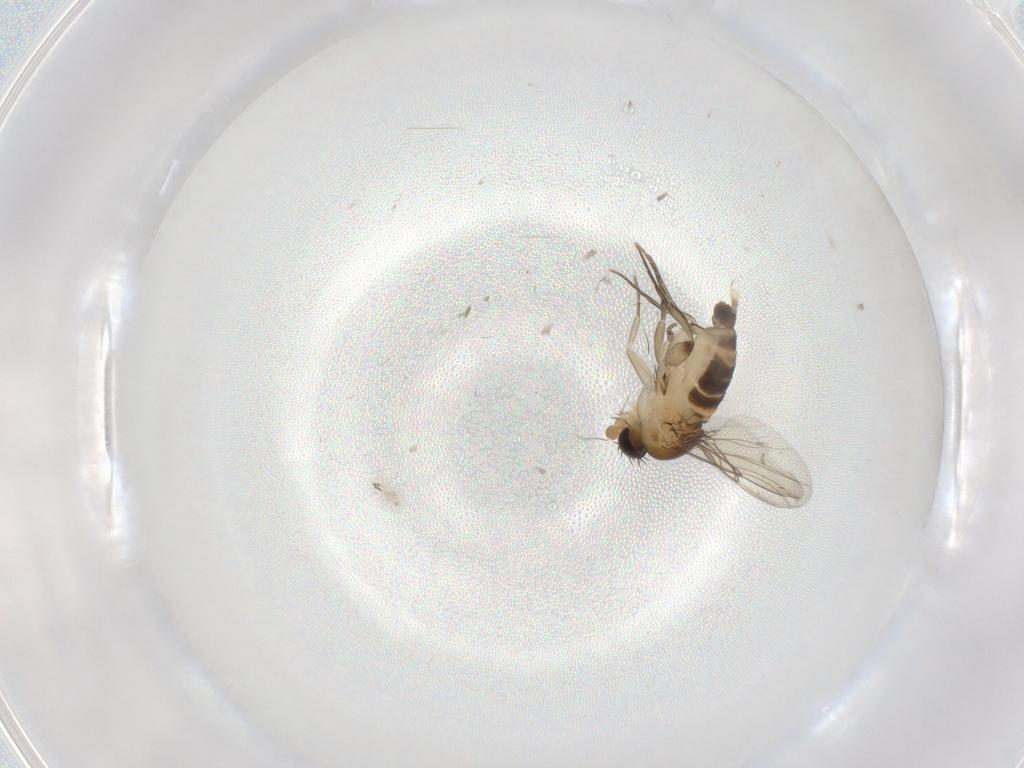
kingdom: Animalia
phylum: Arthropoda
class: Insecta
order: Diptera
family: Phoridae
